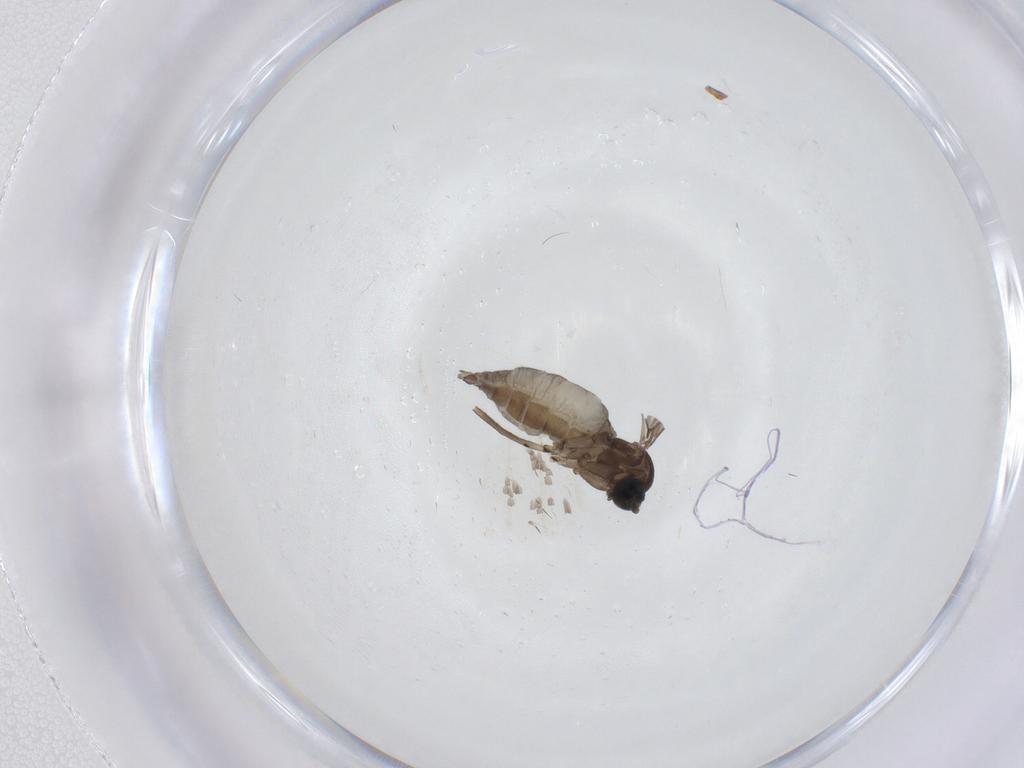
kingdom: Animalia
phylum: Arthropoda
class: Insecta
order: Diptera
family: Sciaridae
